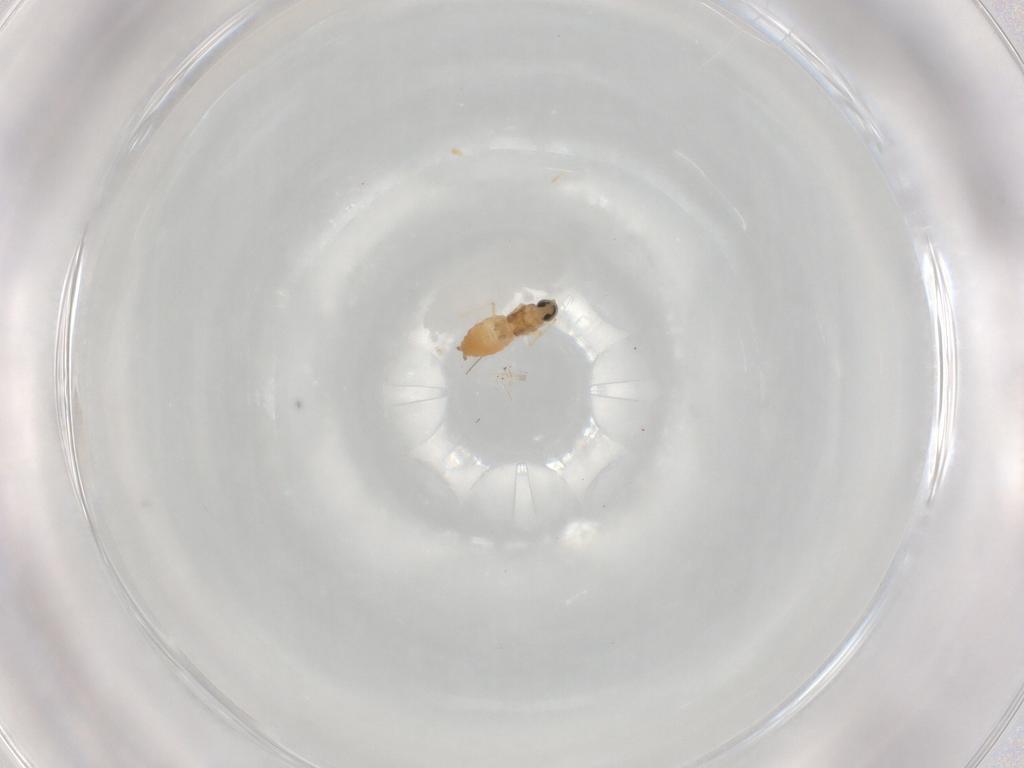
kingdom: Animalia
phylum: Arthropoda
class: Insecta
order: Diptera
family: Cecidomyiidae
